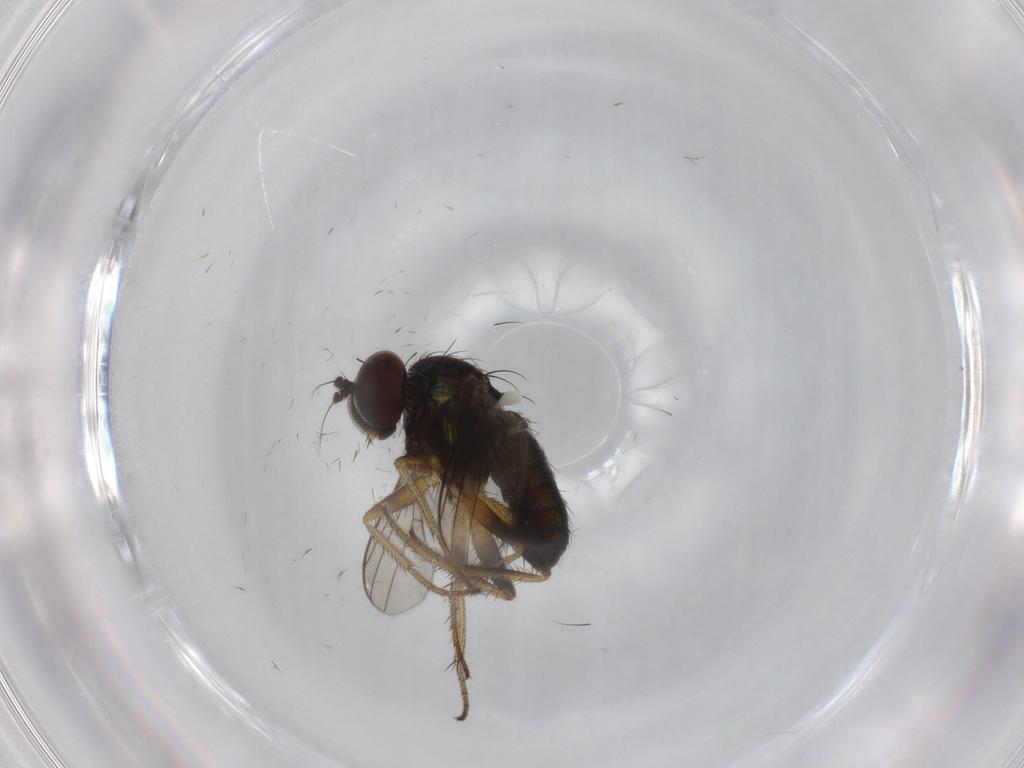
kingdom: Animalia
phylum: Arthropoda
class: Insecta
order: Diptera
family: Dolichopodidae
